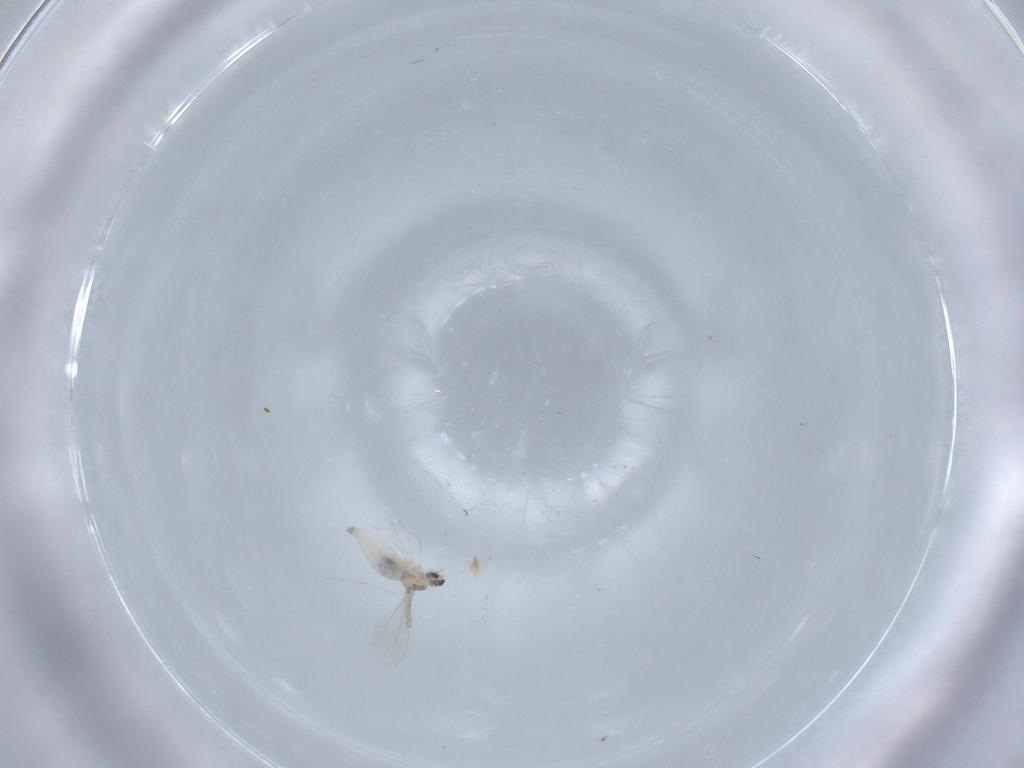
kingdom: Animalia
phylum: Arthropoda
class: Insecta
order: Diptera
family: Cecidomyiidae
